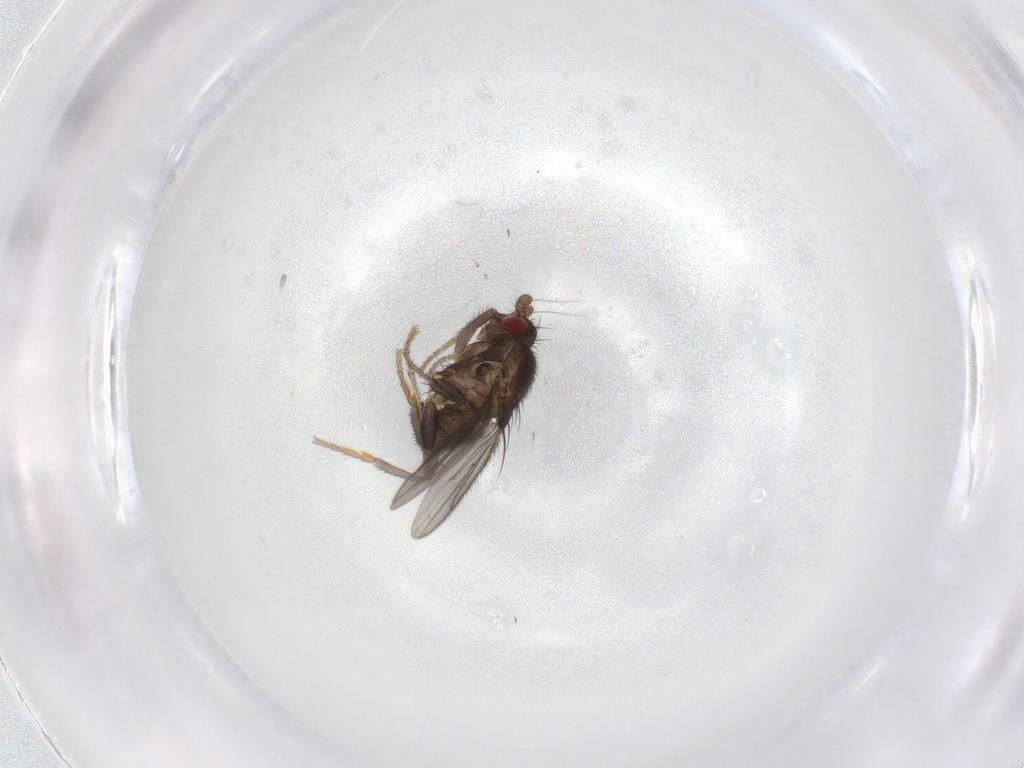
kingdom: Animalia
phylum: Arthropoda
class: Insecta
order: Diptera
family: Sphaeroceridae
